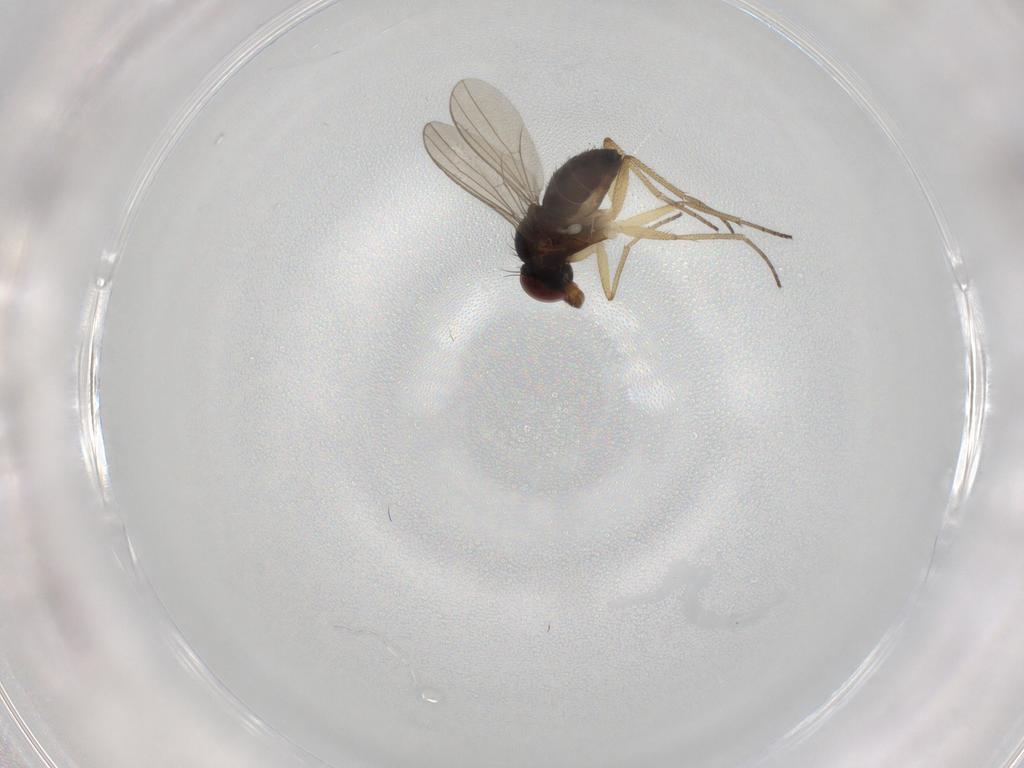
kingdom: Animalia
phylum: Arthropoda
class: Insecta
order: Diptera
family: Dolichopodidae
